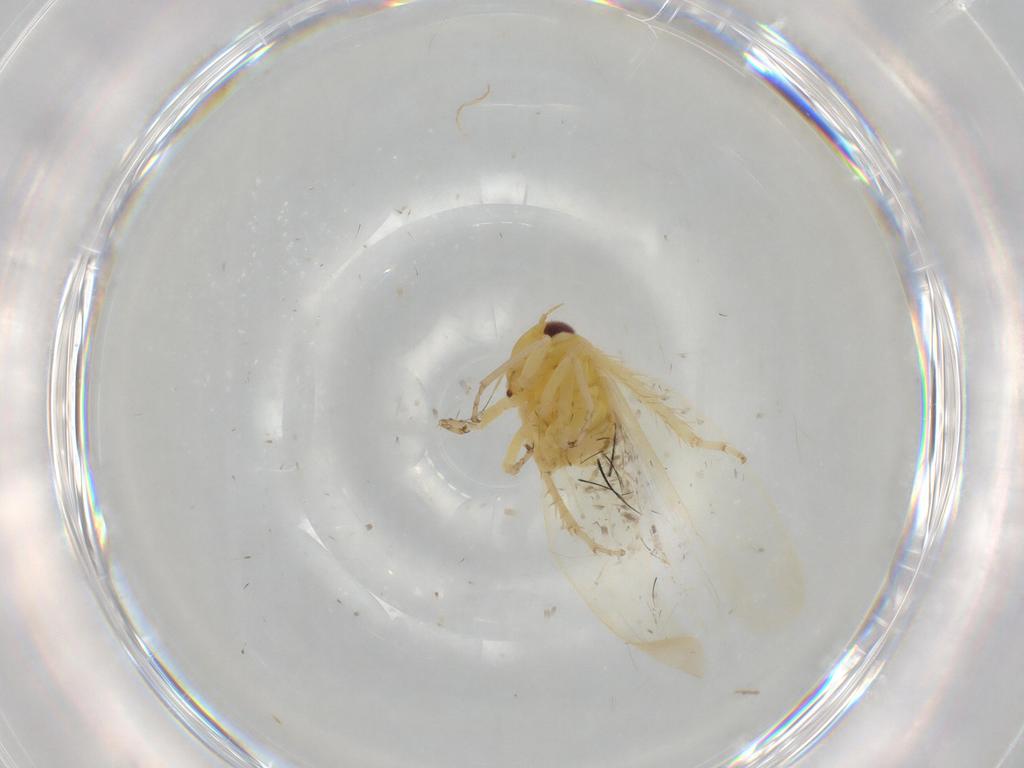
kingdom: Animalia
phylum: Arthropoda
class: Insecta
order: Hemiptera
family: Cicadellidae
